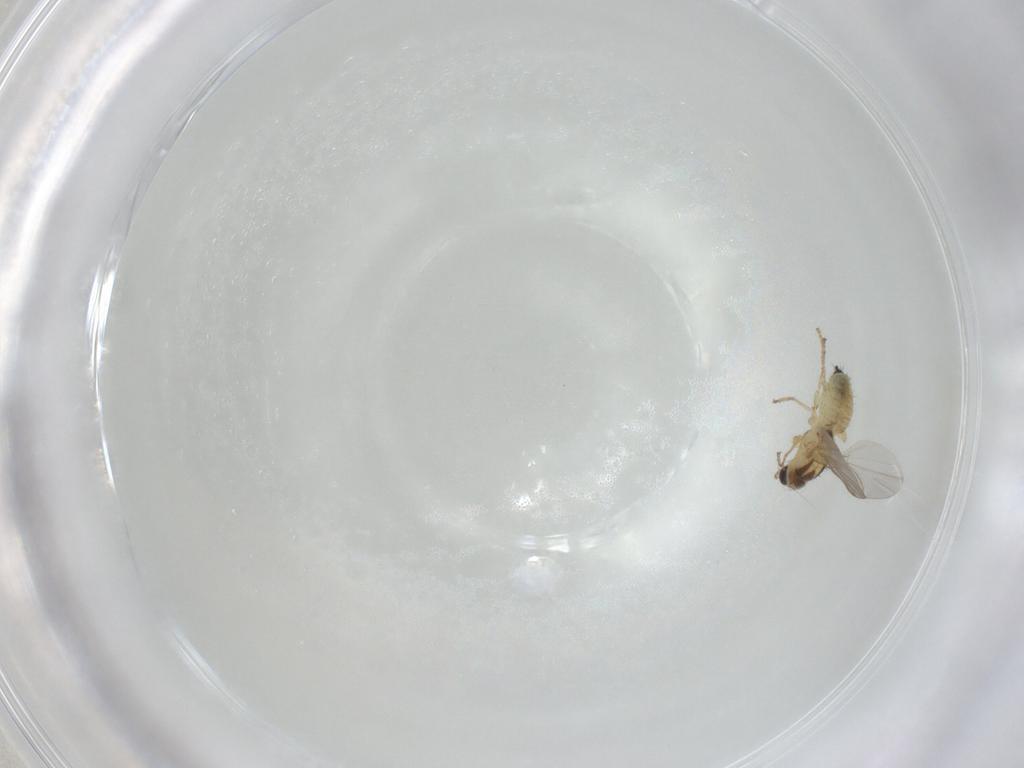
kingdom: Animalia
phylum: Arthropoda
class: Insecta
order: Diptera
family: Agromyzidae
